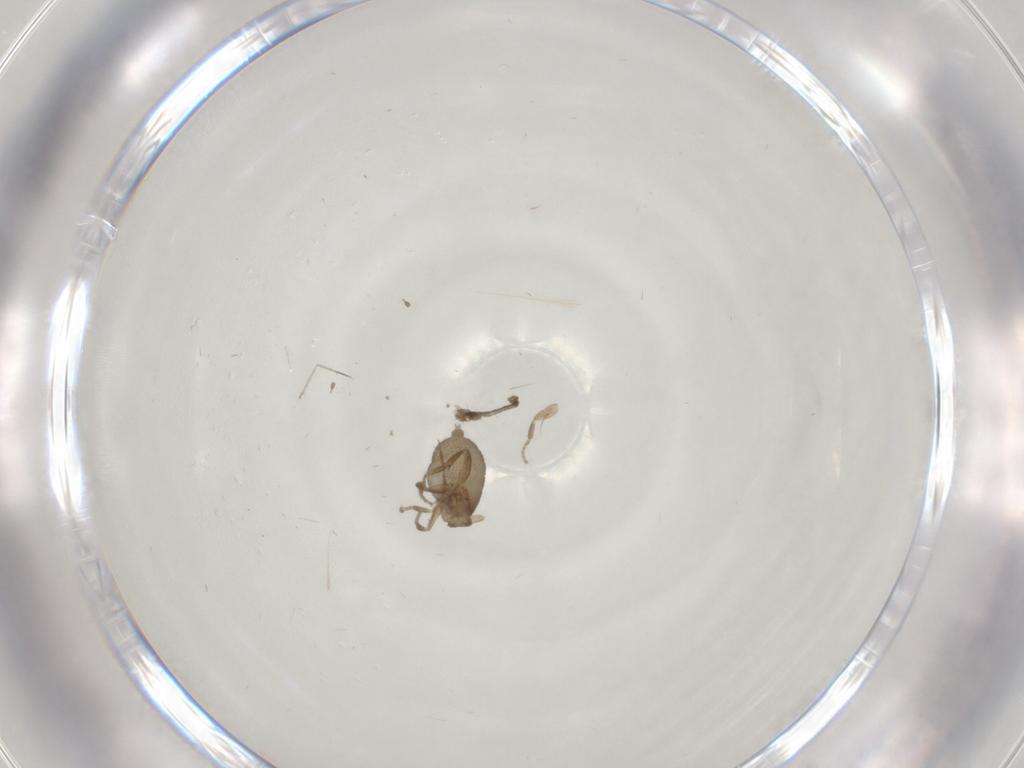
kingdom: Animalia
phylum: Arthropoda
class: Insecta
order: Diptera
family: Cecidomyiidae
